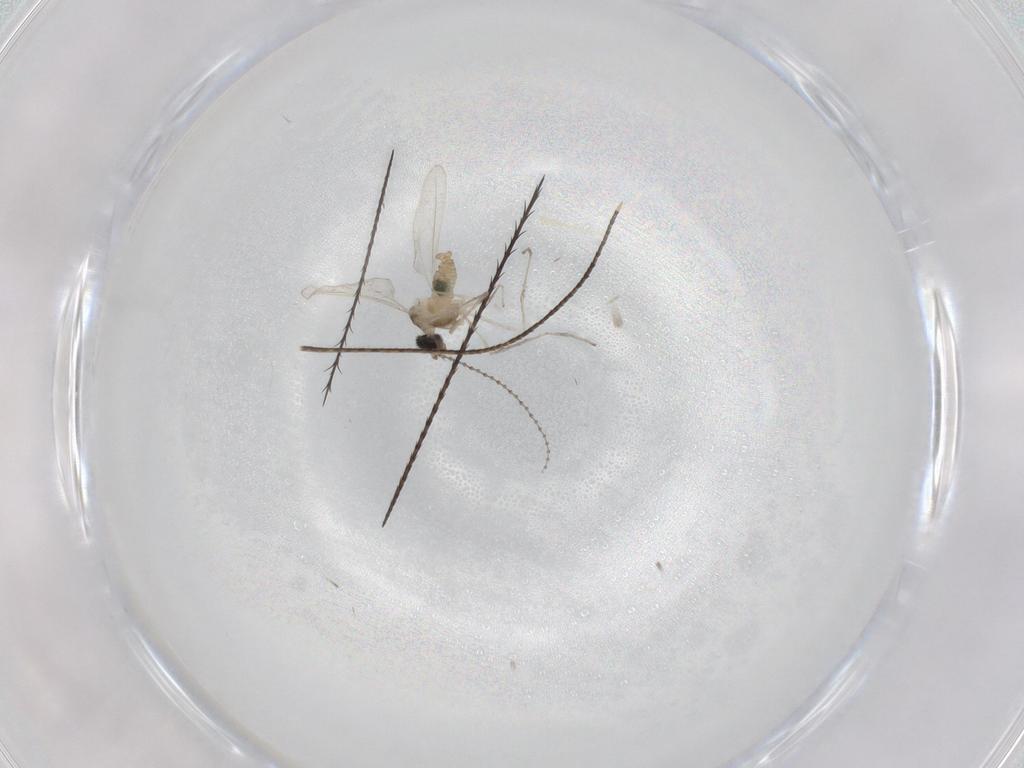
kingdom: Animalia
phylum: Arthropoda
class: Insecta
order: Diptera
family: Cecidomyiidae
